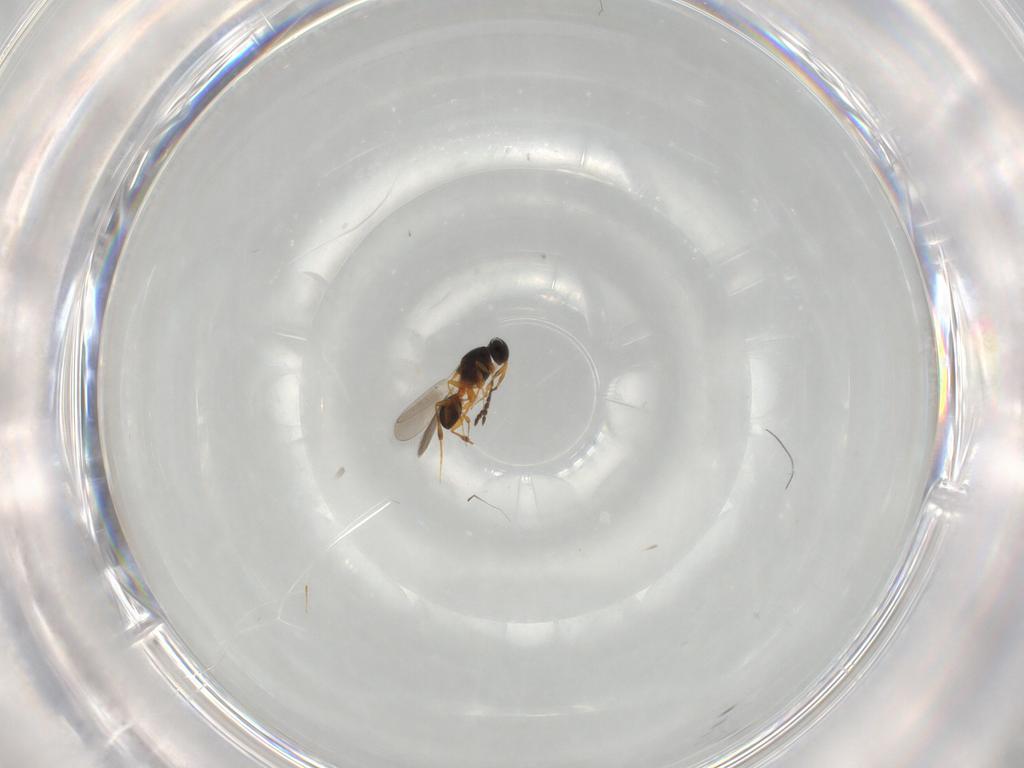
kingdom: Animalia
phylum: Arthropoda
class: Insecta
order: Hymenoptera
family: Platygastridae
